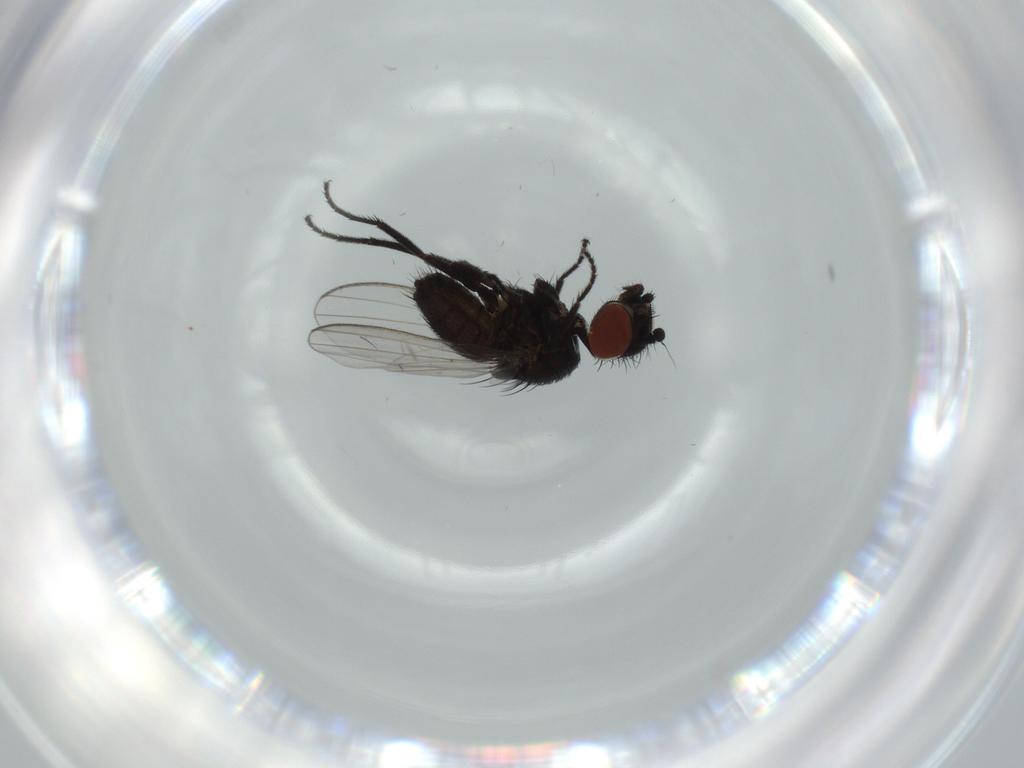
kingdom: Animalia
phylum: Arthropoda
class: Insecta
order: Diptera
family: Milichiidae
